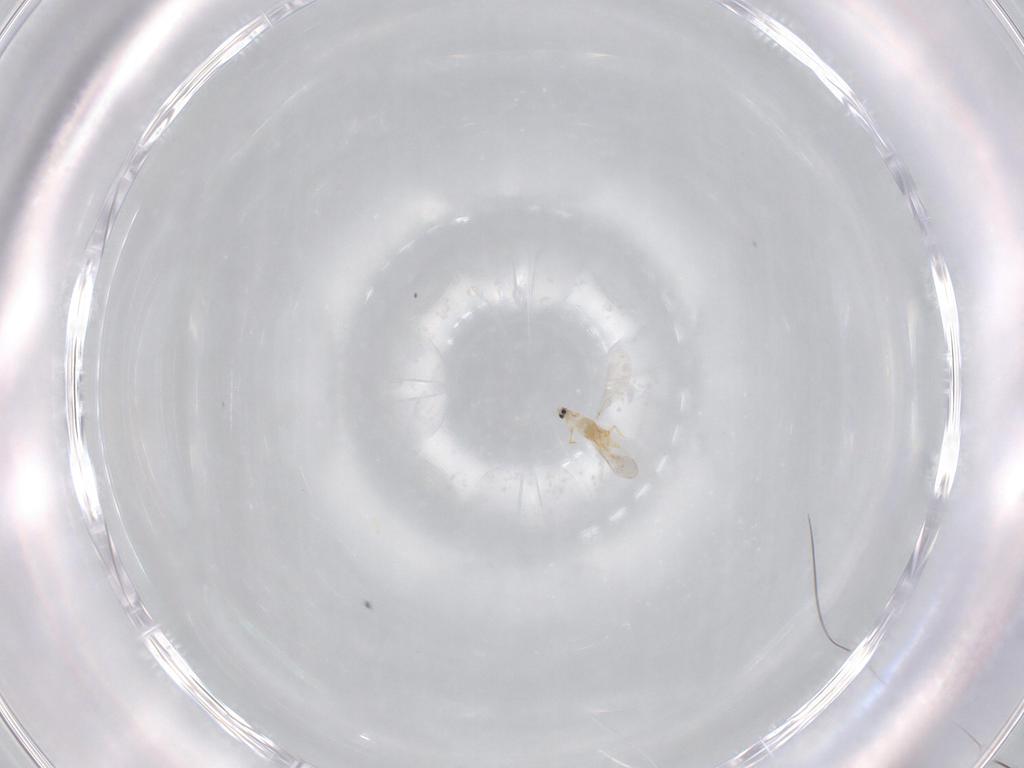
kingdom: Animalia
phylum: Arthropoda
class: Insecta
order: Hemiptera
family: Diaspididae
